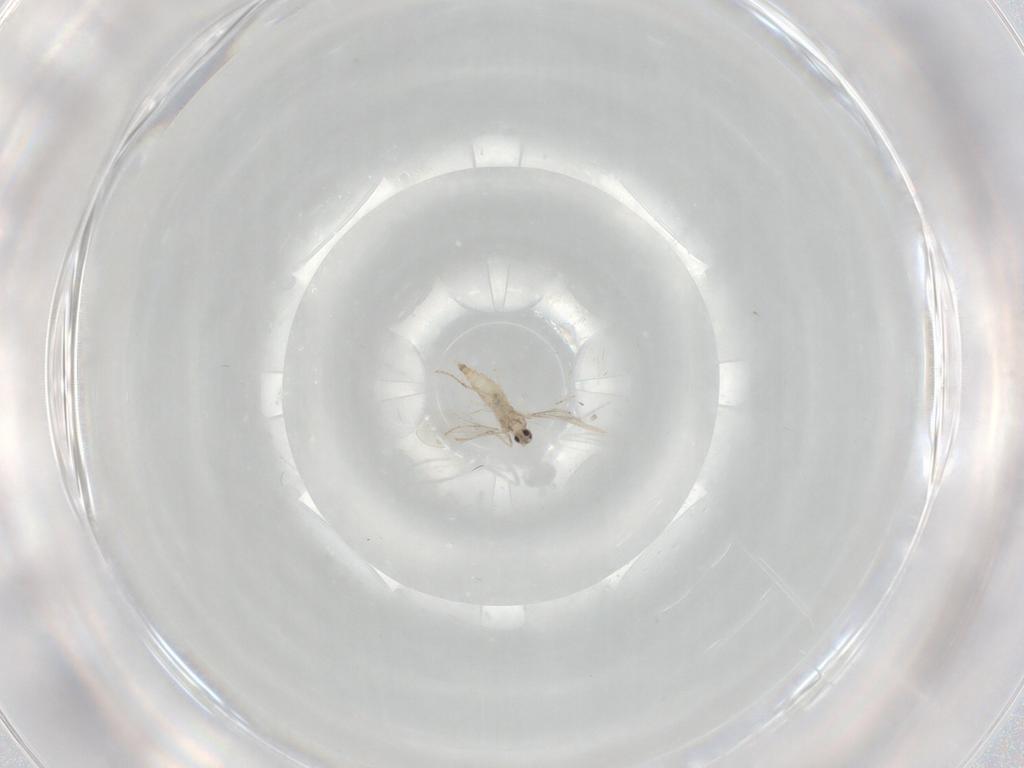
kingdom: Animalia
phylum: Arthropoda
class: Insecta
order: Diptera
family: Cecidomyiidae
